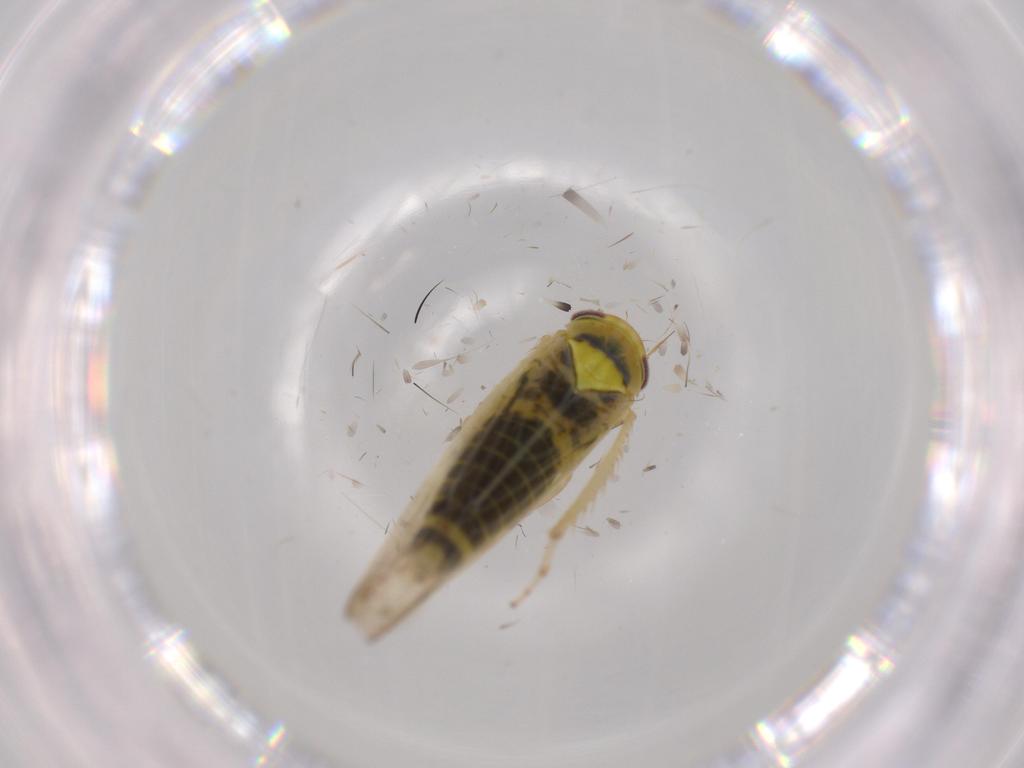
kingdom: Animalia
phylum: Arthropoda
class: Insecta
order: Hemiptera
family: Cicadellidae
